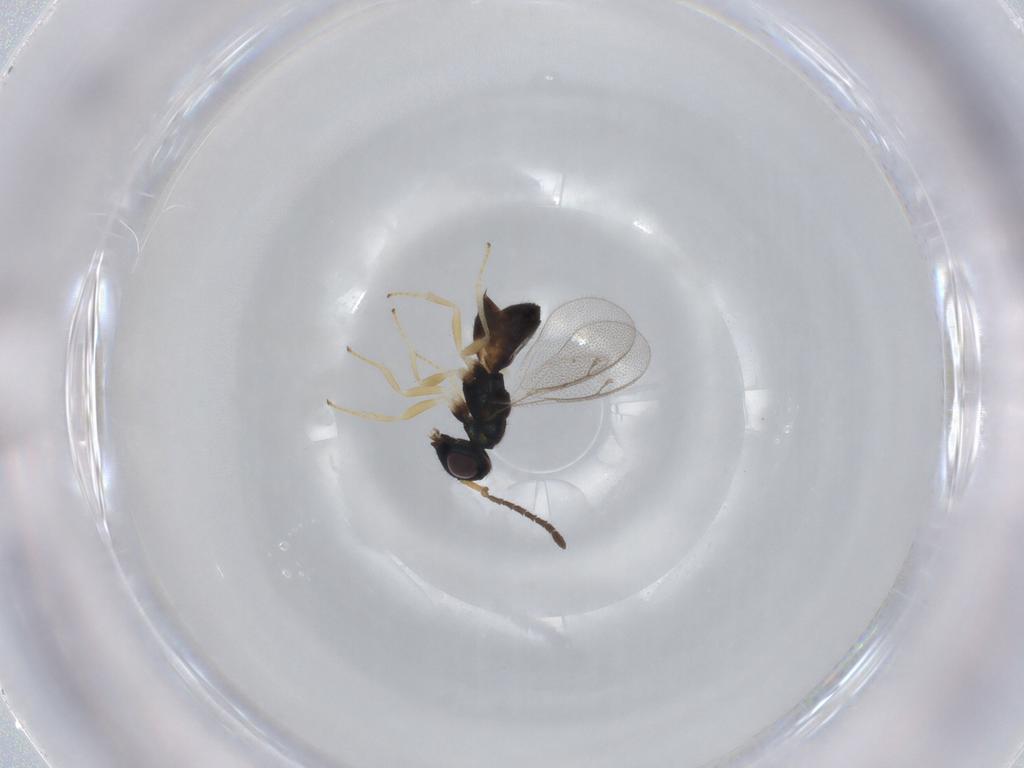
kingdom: Animalia
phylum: Arthropoda
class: Insecta
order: Hymenoptera
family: Pteromalidae
